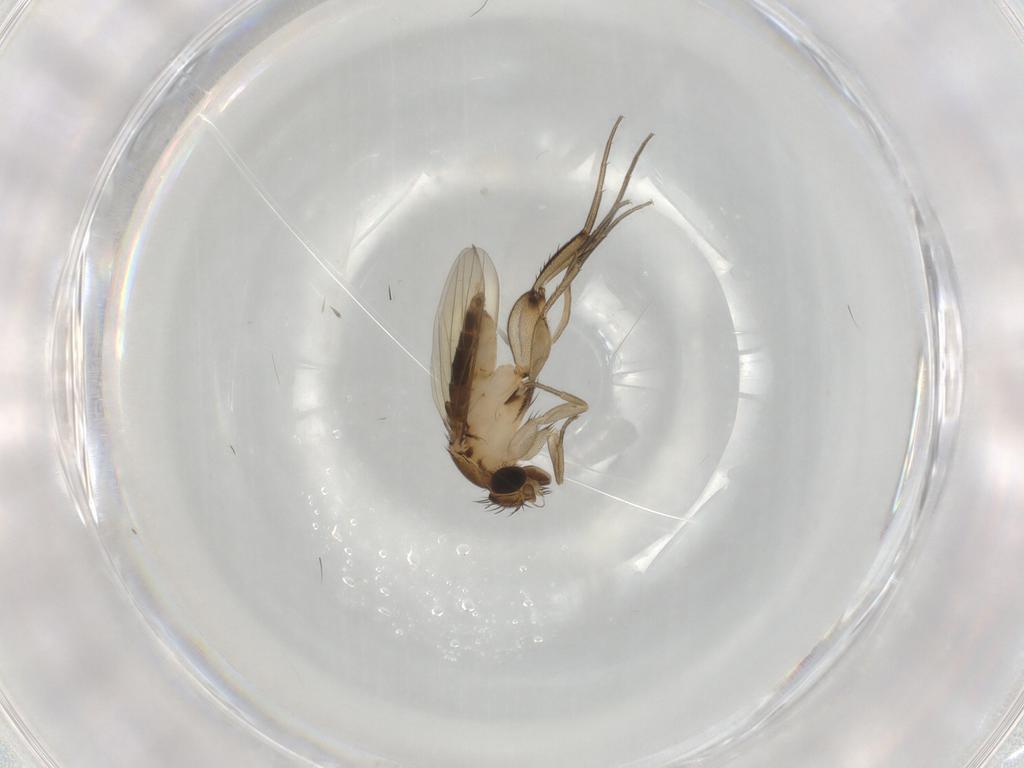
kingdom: Animalia
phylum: Arthropoda
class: Insecta
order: Diptera
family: Phoridae
